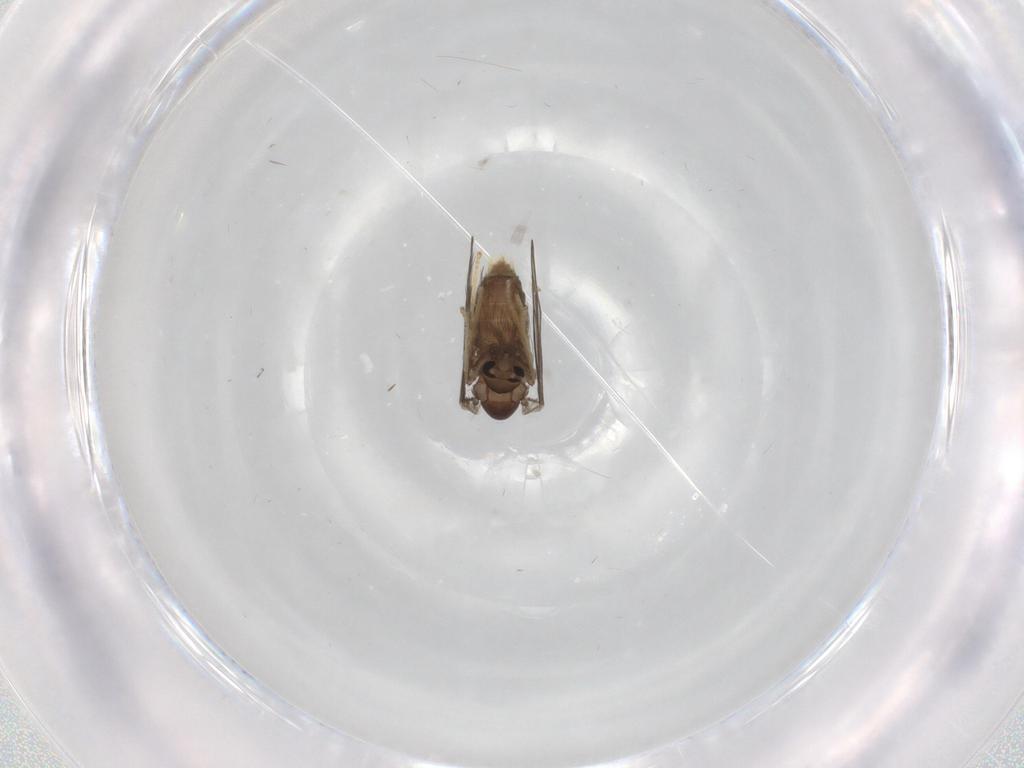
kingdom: Animalia
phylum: Arthropoda
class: Insecta
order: Diptera
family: Psychodidae
